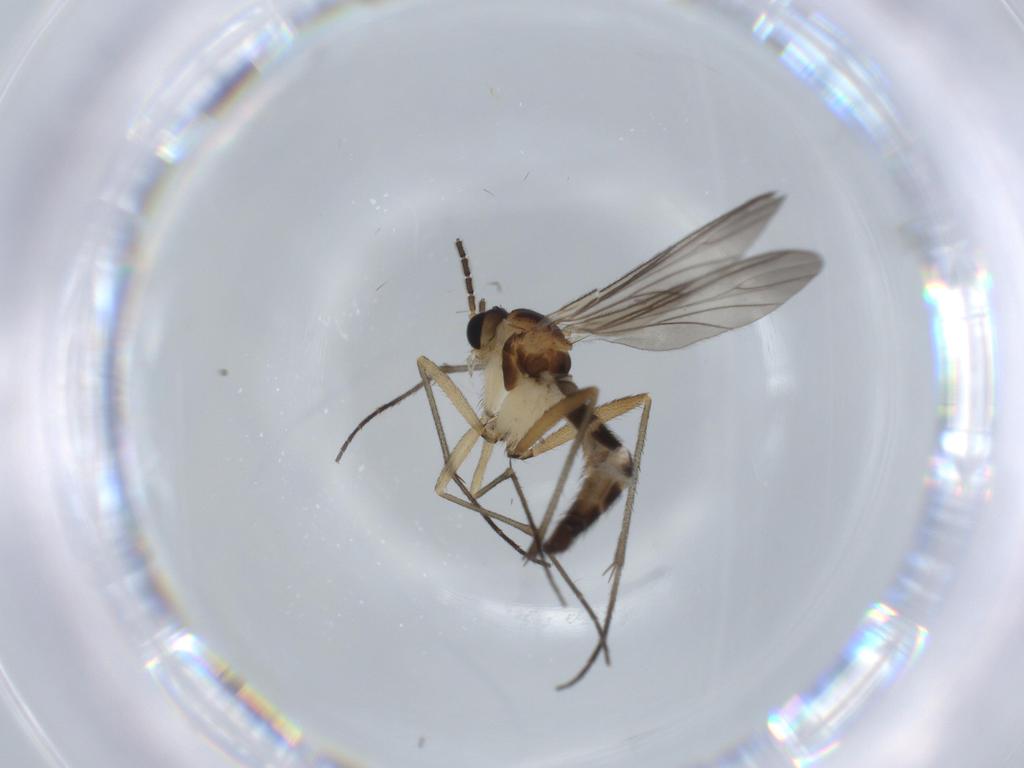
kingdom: Animalia
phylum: Arthropoda
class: Insecta
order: Diptera
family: Sciaridae
